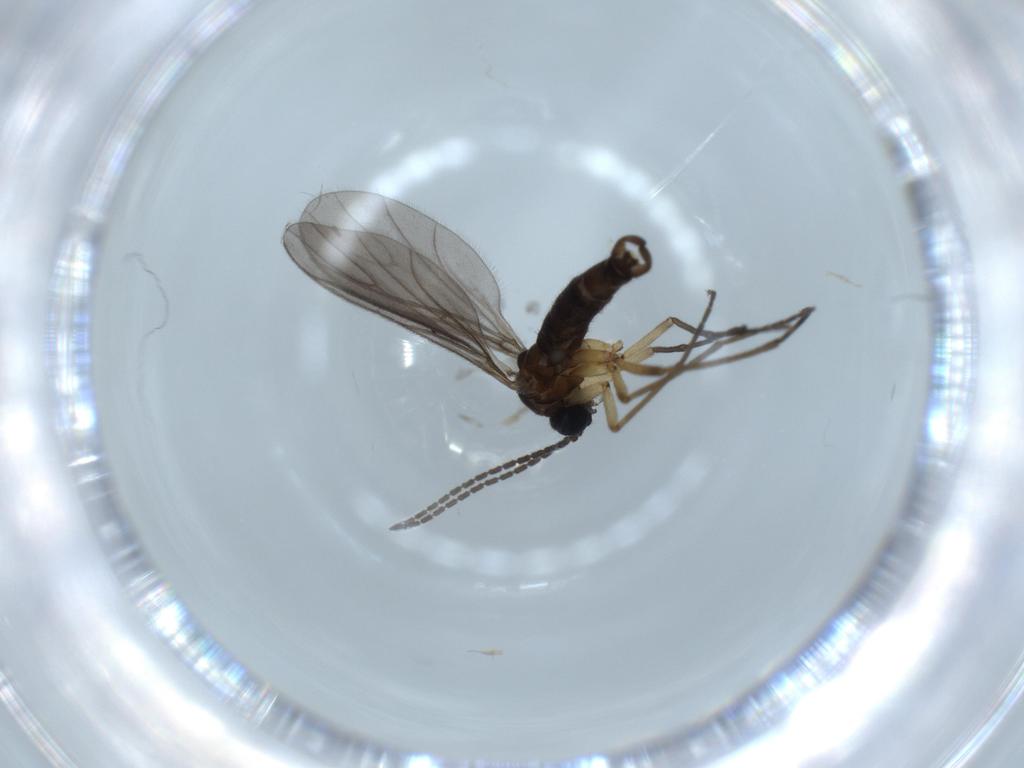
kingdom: Animalia
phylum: Arthropoda
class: Insecta
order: Diptera
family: Sciaridae
